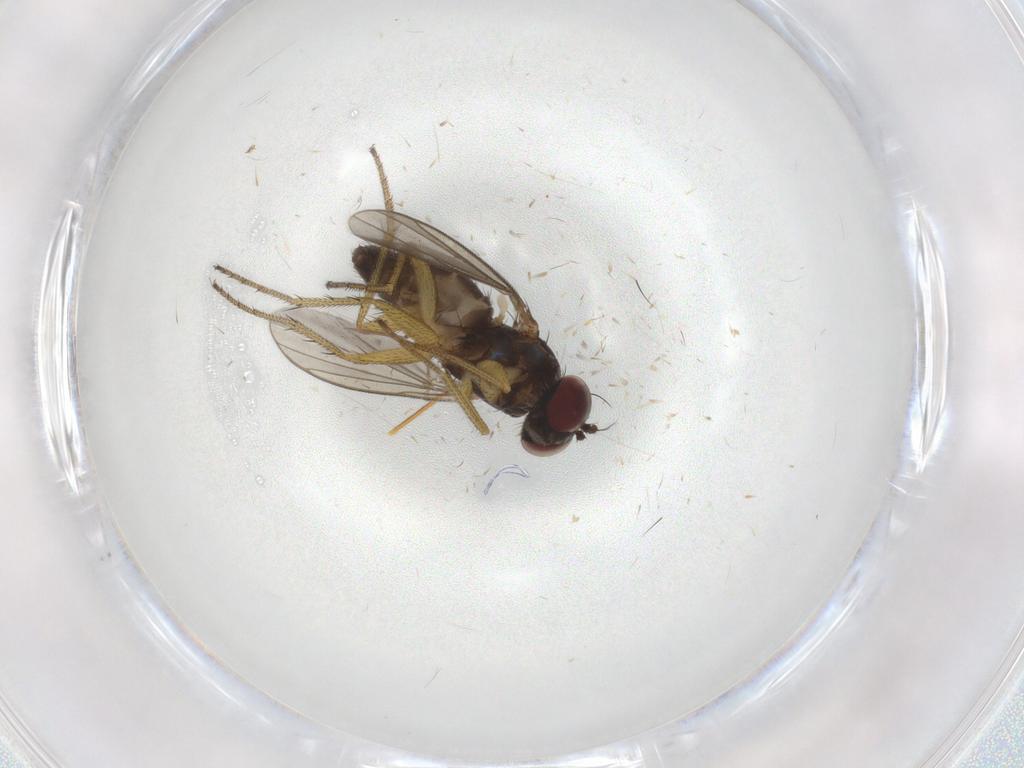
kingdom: Animalia
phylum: Arthropoda
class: Insecta
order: Diptera
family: Dolichopodidae
